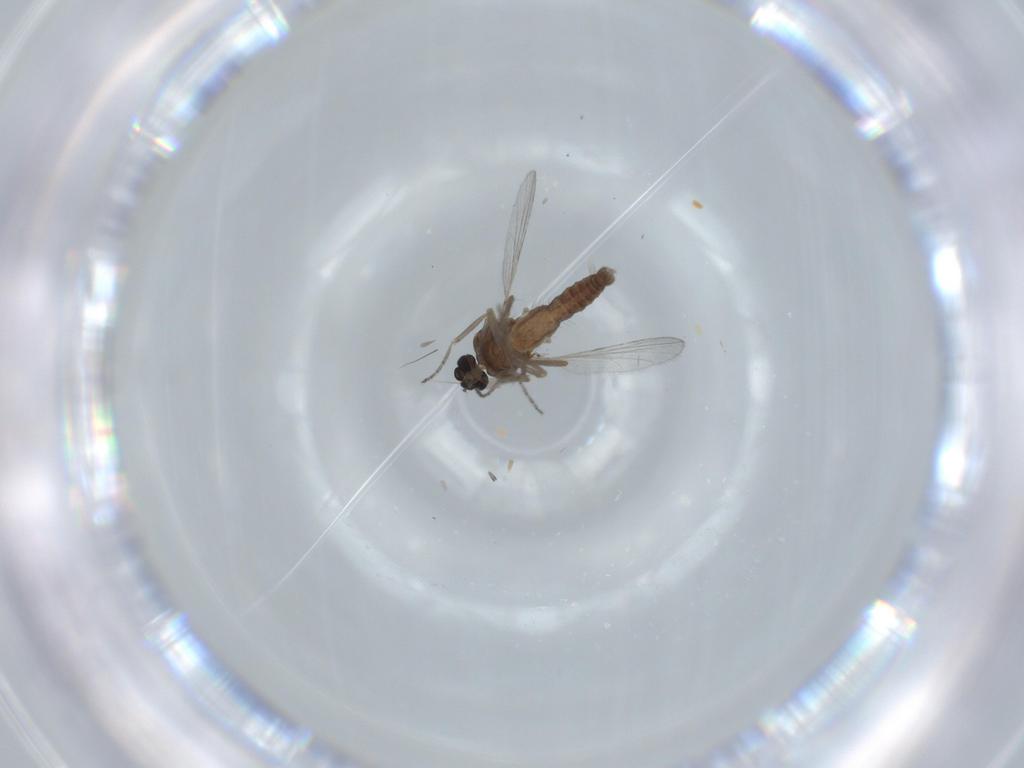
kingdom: Animalia
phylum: Arthropoda
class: Insecta
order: Diptera
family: Ceratopogonidae
